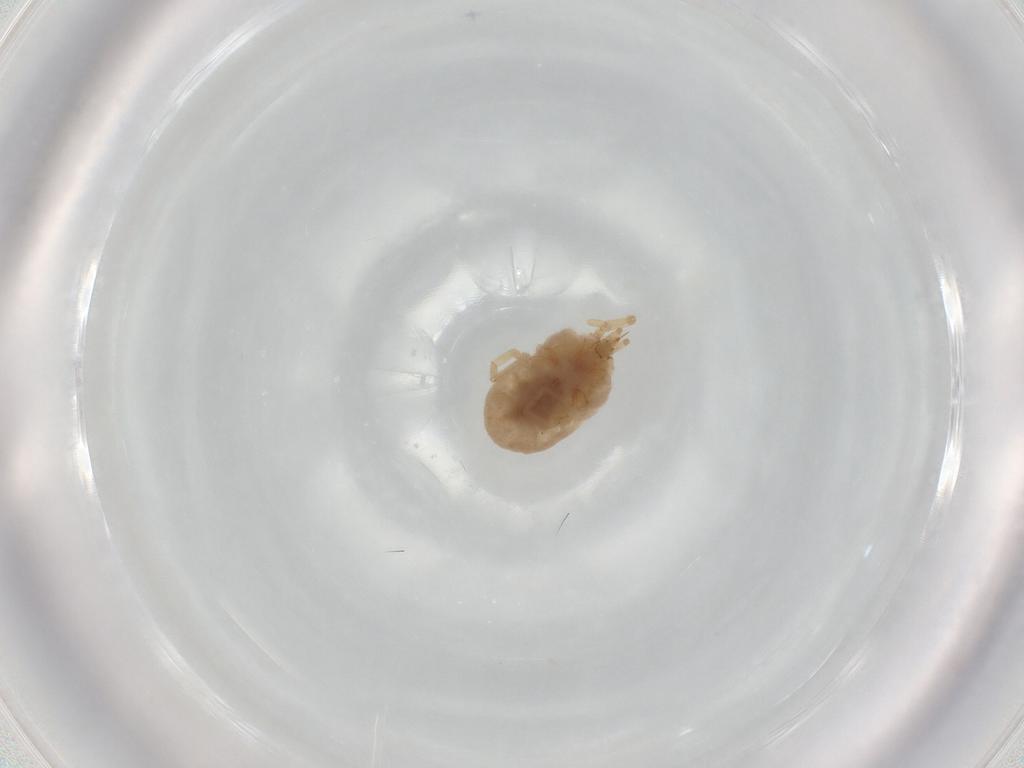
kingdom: Animalia
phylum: Arthropoda
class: Arachnida
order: Trombidiformes
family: Erythraeidae
